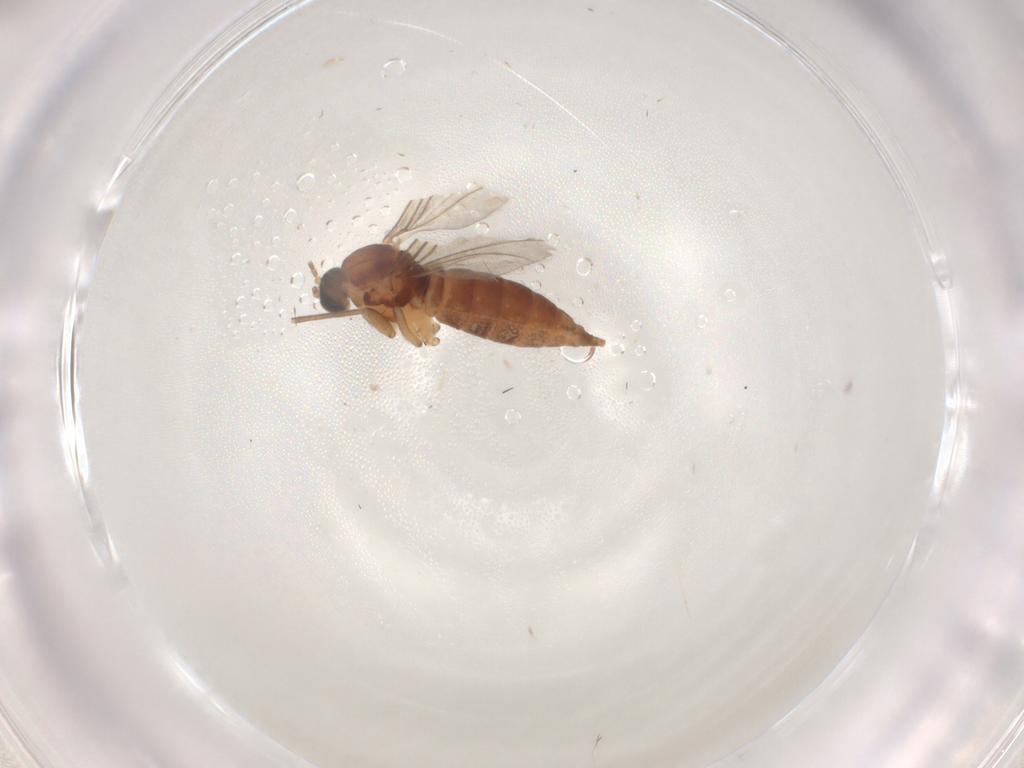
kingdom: Animalia
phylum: Arthropoda
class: Insecta
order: Diptera
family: Sciaridae
